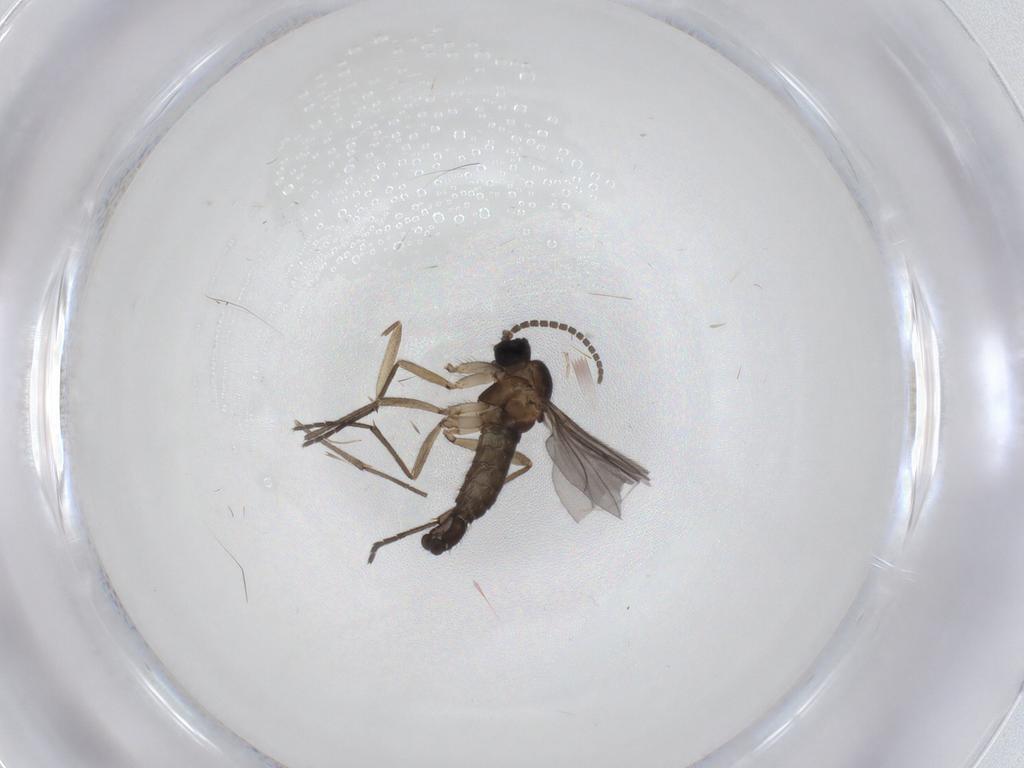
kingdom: Animalia
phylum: Arthropoda
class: Insecta
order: Diptera
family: Sciaridae
